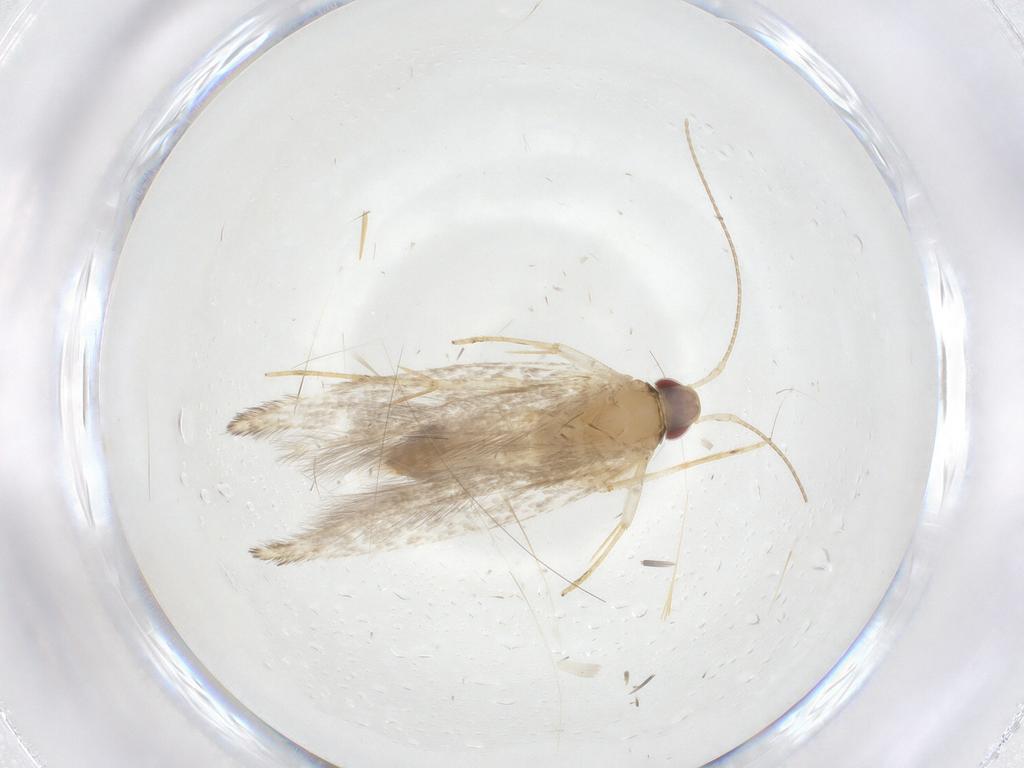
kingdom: Animalia
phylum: Arthropoda
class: Insecta
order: Lepidoptera
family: Cosmopterigidae
